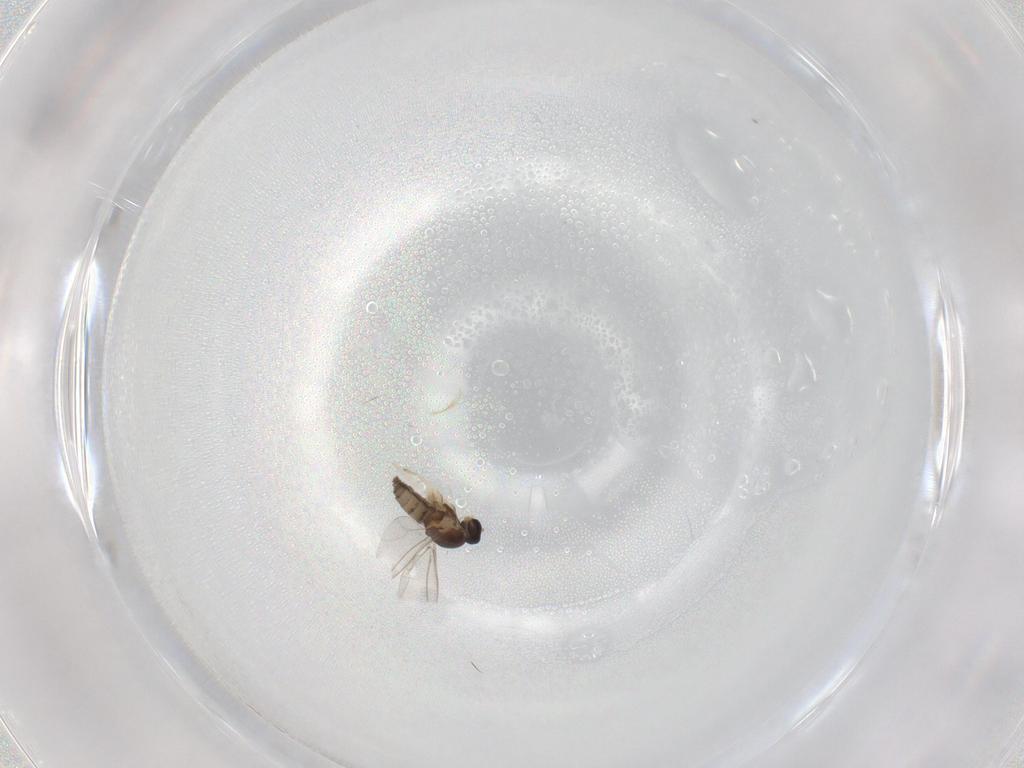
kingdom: Animalia
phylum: Arthropoda
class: Insecta
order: Diptera
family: Cecidomyiidae
